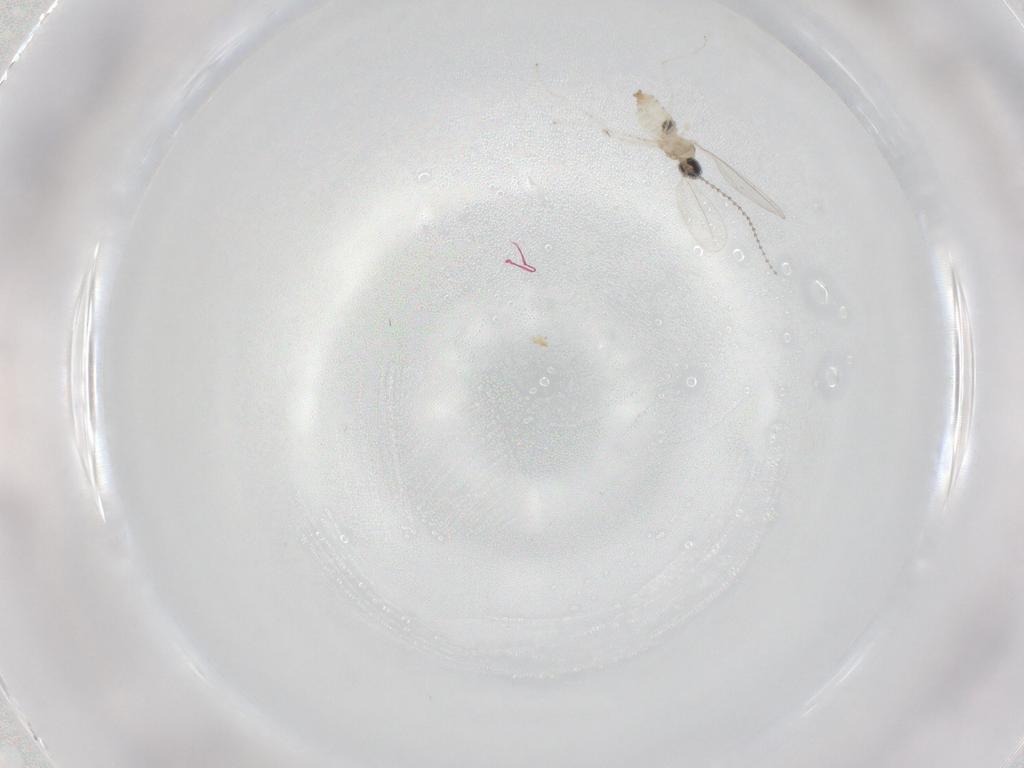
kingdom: Animalia
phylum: Arthropoda
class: Insecta
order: Diptera
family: Cecidomyiidae
